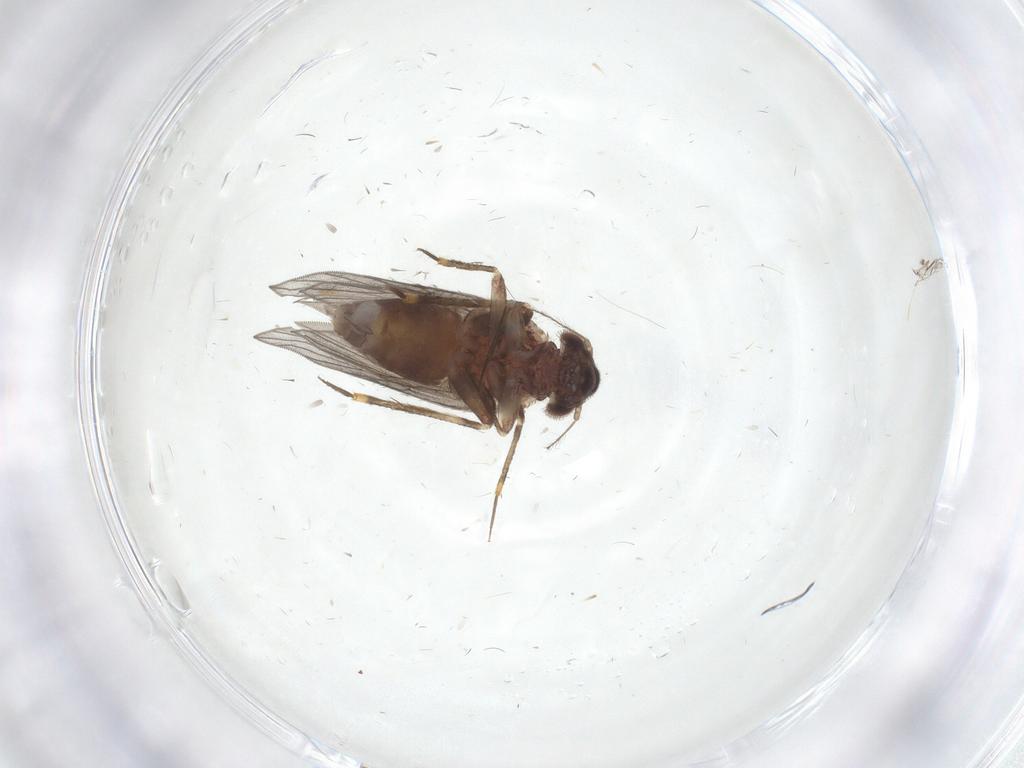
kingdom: Animalia
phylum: Arthropoda
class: Insecta
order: Psocodea
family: Lepidopsocidae
